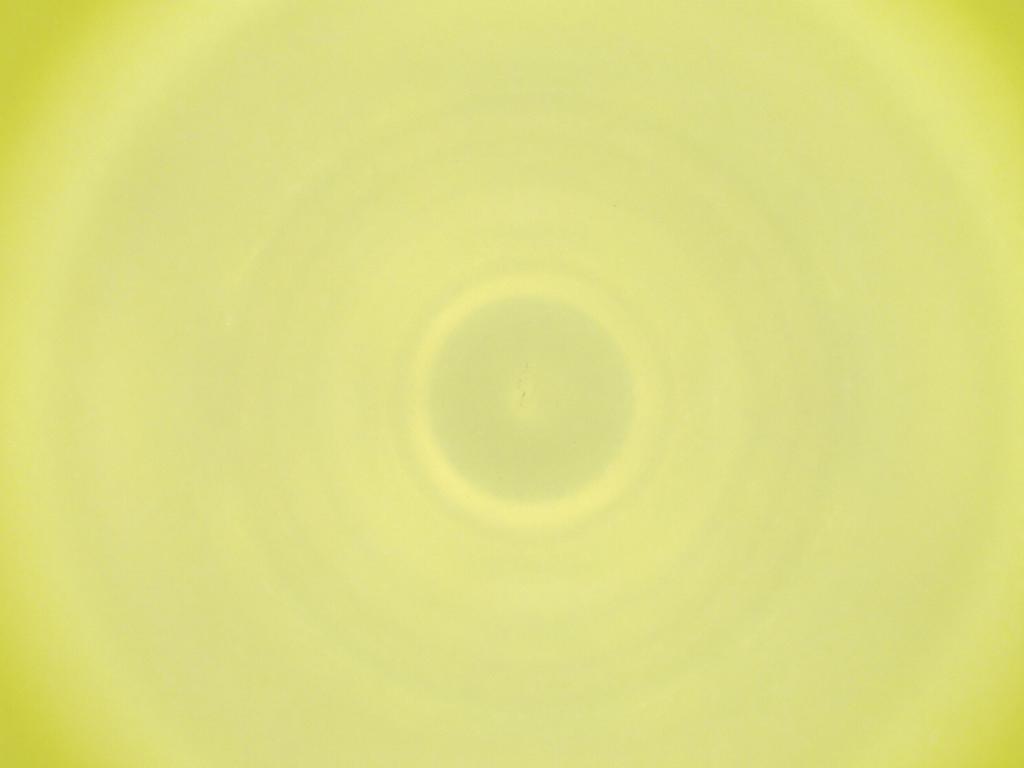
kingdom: Animalia
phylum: Arthropoda
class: Insecta
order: Diptera
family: Cecidomyiidae
